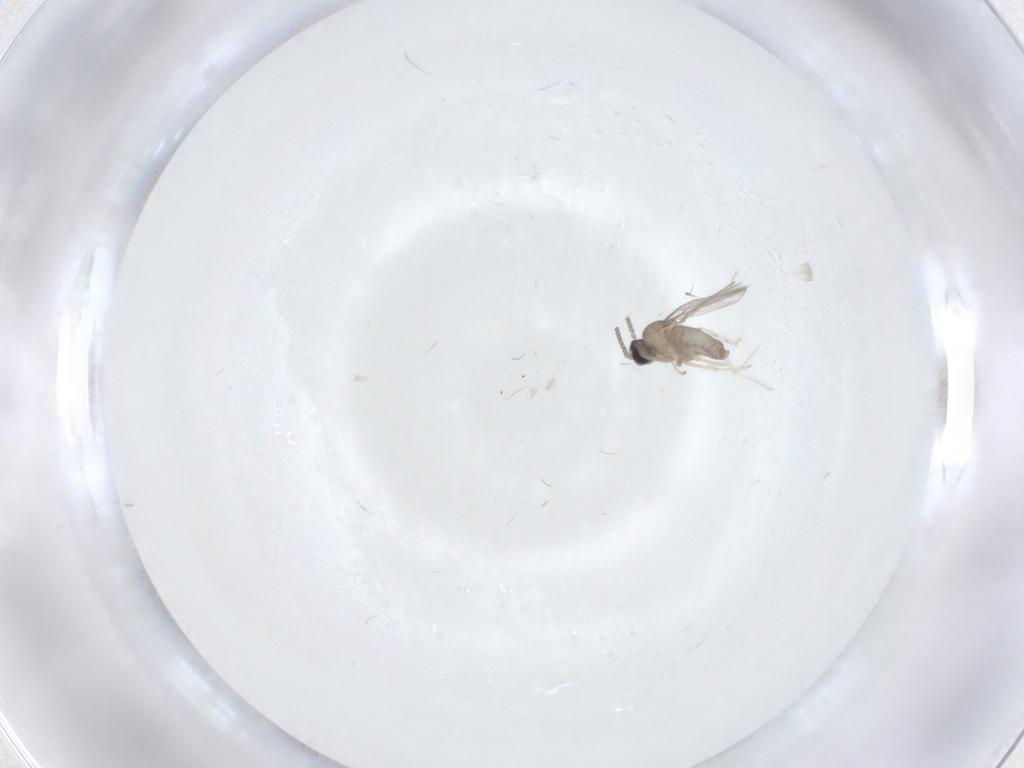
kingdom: Animalia
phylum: Arthropoda
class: Insecta
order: Diptera
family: Cecidomyiidae
